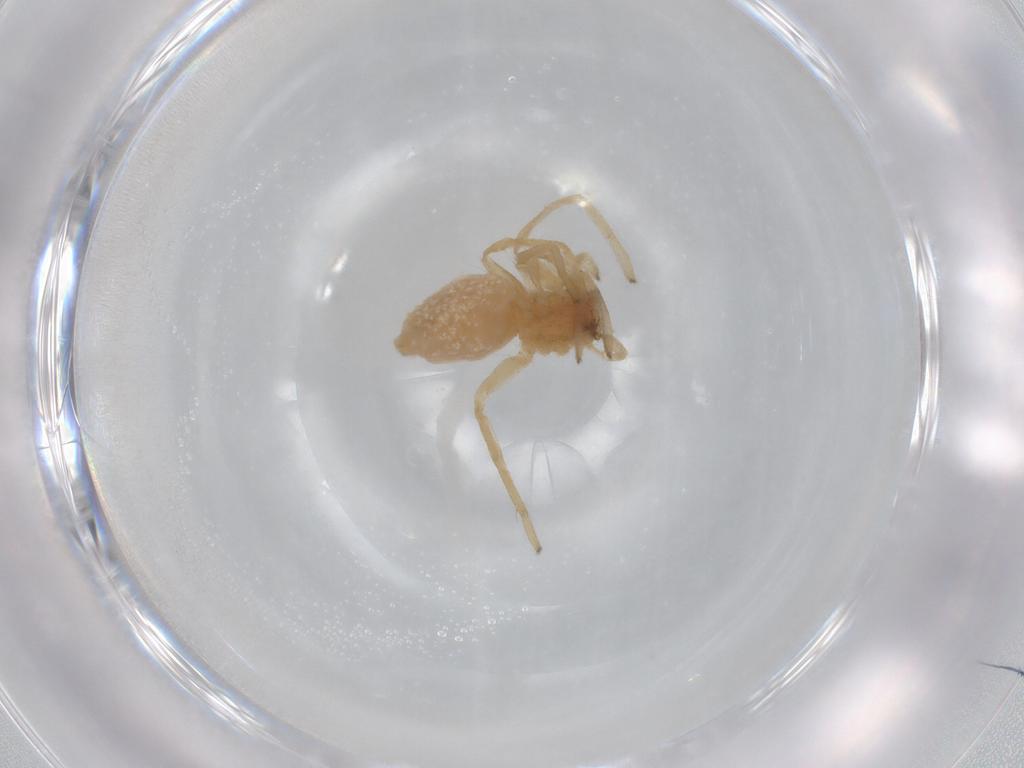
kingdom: Animalia
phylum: Arthropoda
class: Arachnida
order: Araneae
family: Cheiracanthiidae
